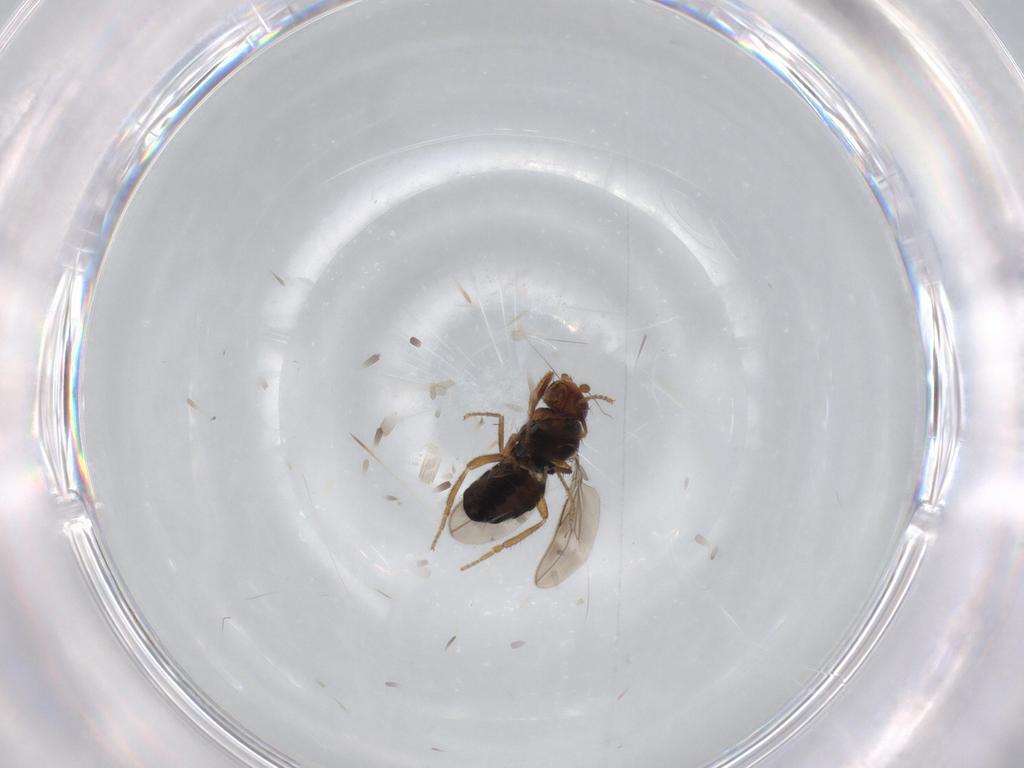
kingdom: Animalia
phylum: Arthropoda
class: Insecta
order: Diptera
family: Sphaeroceridae
